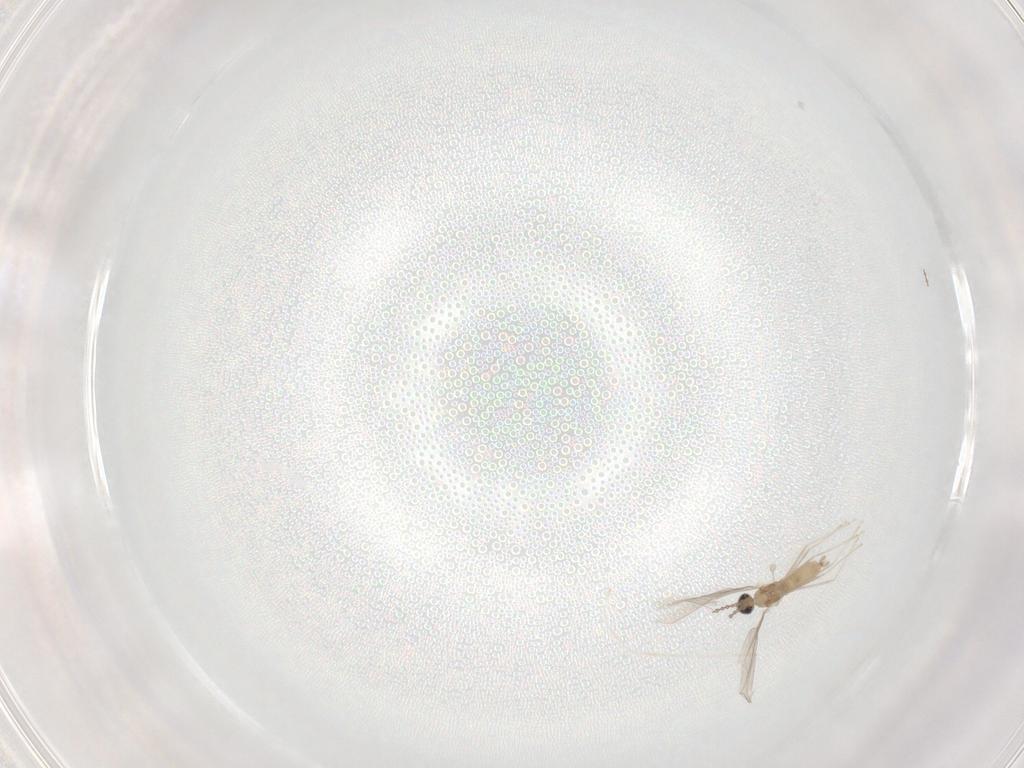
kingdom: Animalia
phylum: Arthropoda
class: Insecta
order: Diptera
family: Cecidomyiidae
